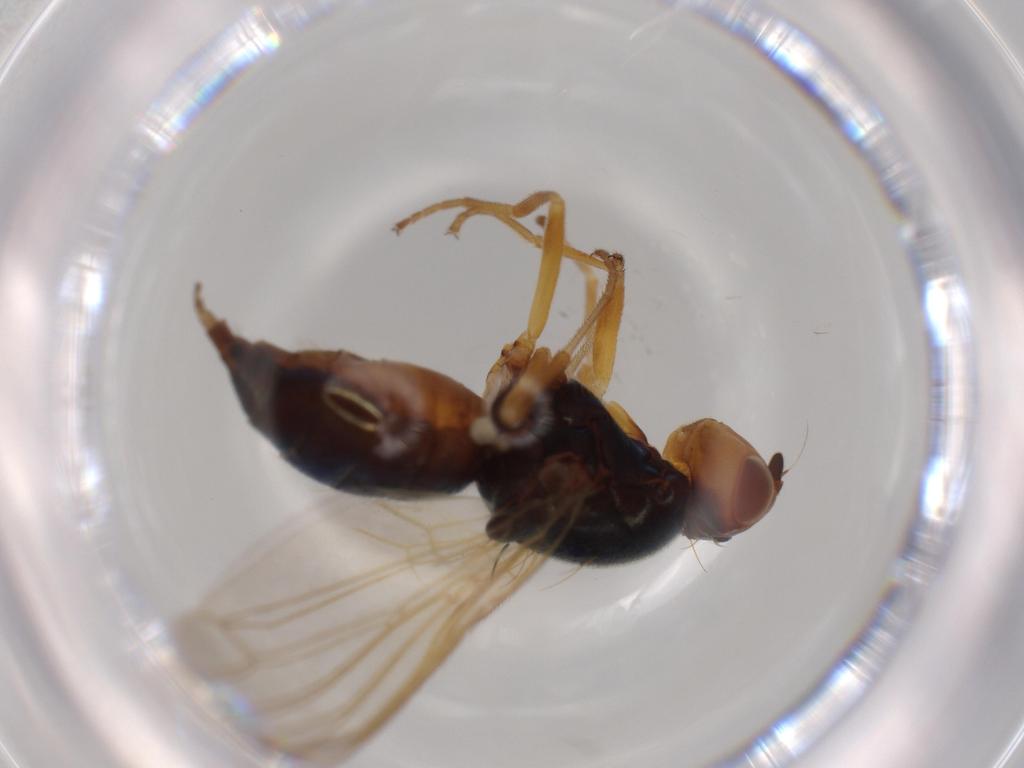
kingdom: Animalia
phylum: Arthropoda
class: Insecta
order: Diptera
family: Psilidae
